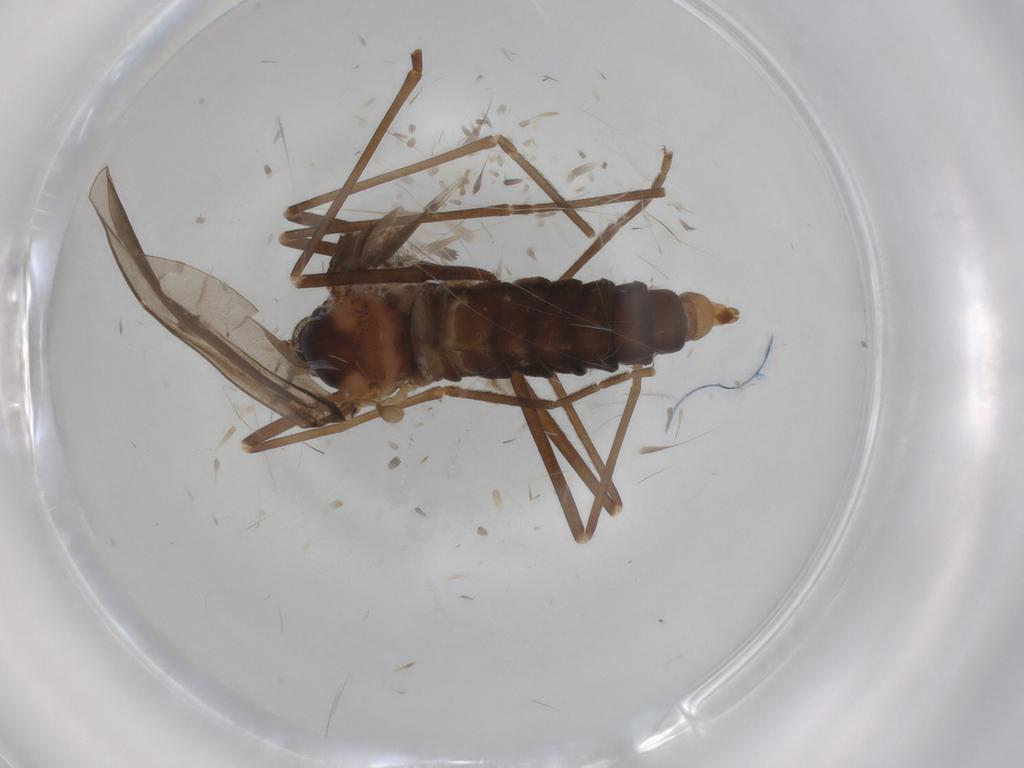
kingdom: Animalia
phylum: Arthropoda
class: Insecta
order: Diptera
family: Cecidomyiidae
